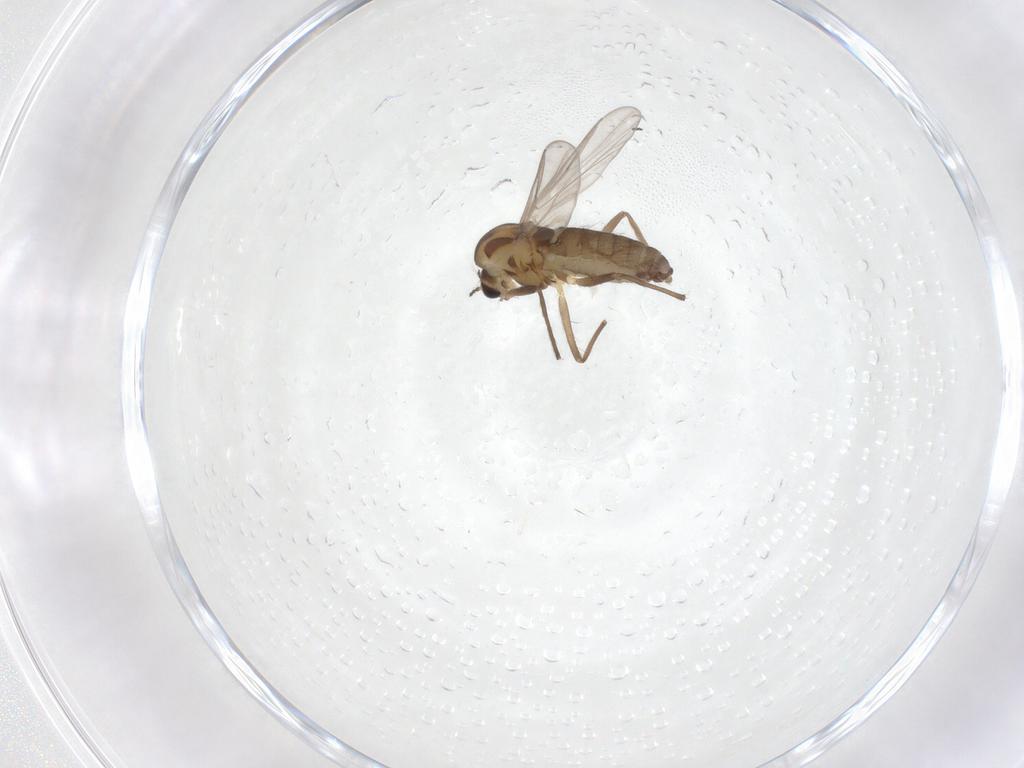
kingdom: Animalia
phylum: Arthropoda
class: Insecta
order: Diptera
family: Chironomidae
